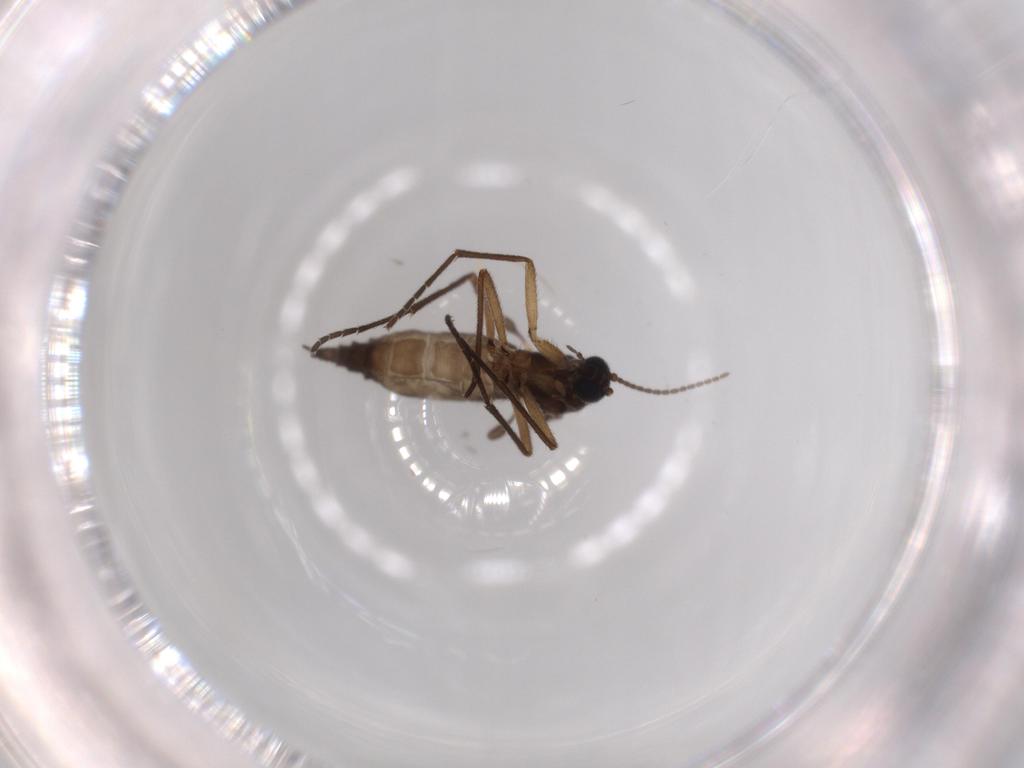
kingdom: Animalia
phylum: Arthropoda
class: Insecta
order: Diptera
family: Sciaridae
